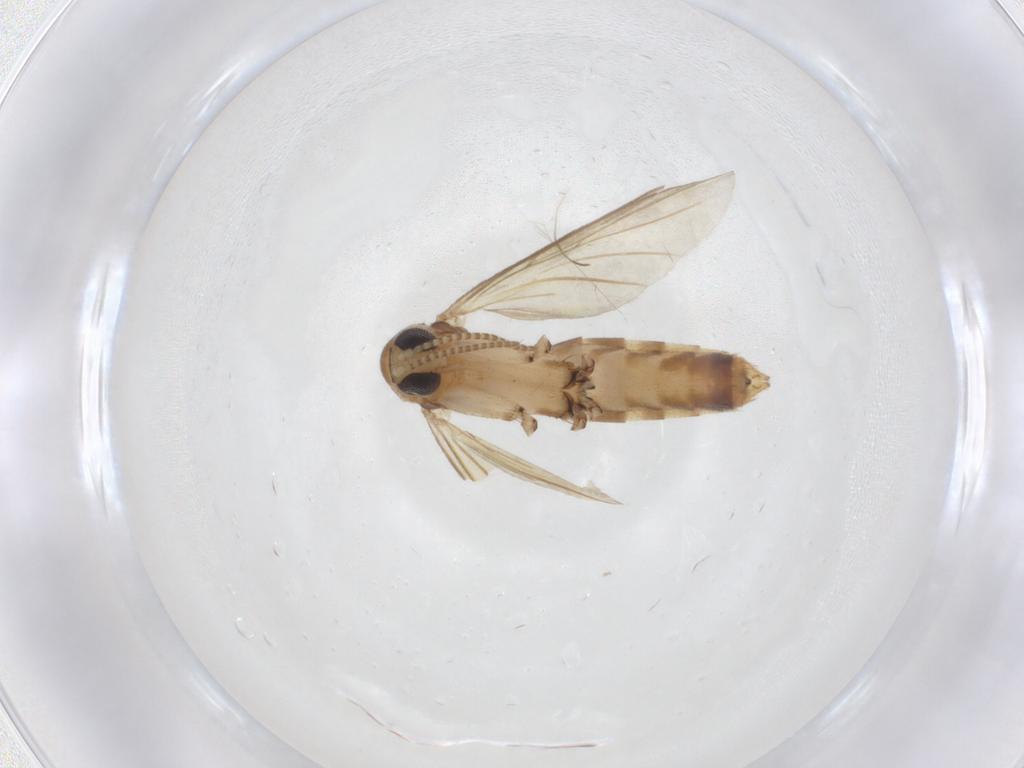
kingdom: Animalia
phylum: Arthropoda
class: Insecta
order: Diptera
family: Mycetophilidae
